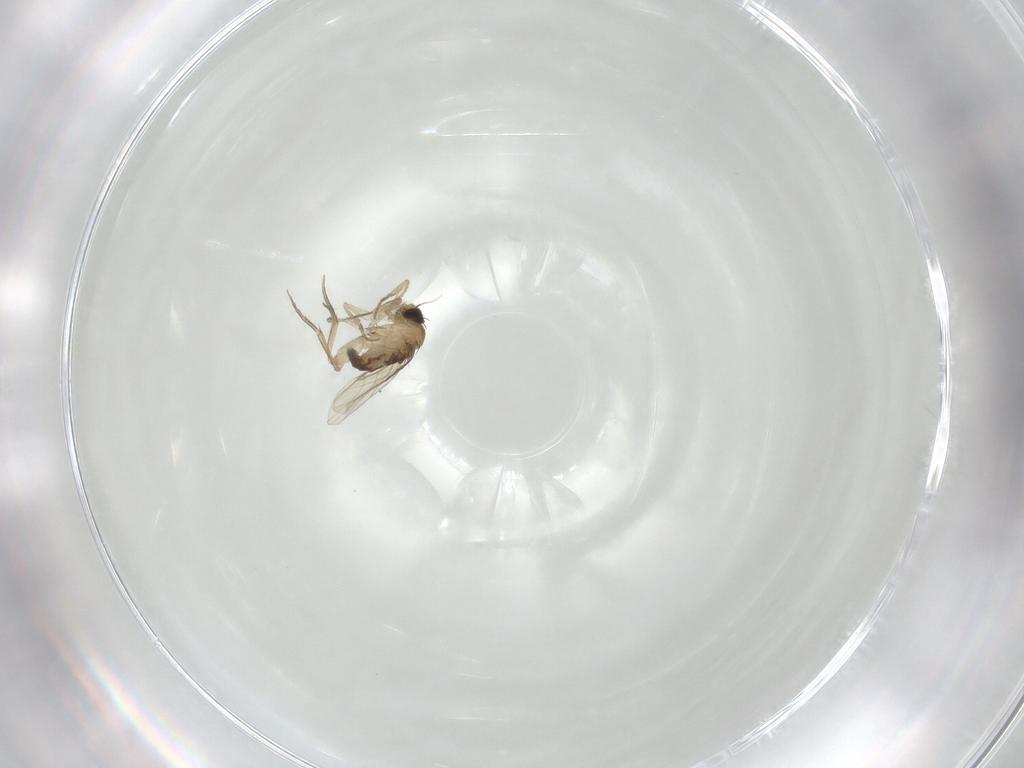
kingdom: Animalia
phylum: Arthropoda
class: Insecta
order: Diptera
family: Phoridae
